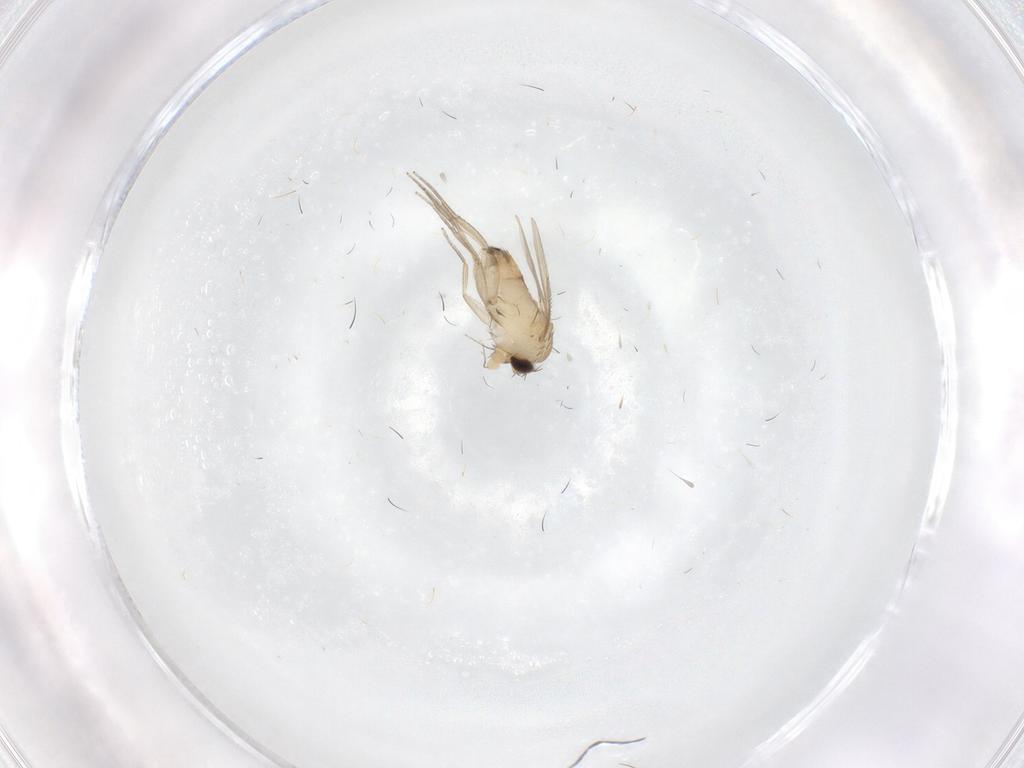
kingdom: Animalia
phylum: Arthropoda
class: Insecta
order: Diptera
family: Phoridae
